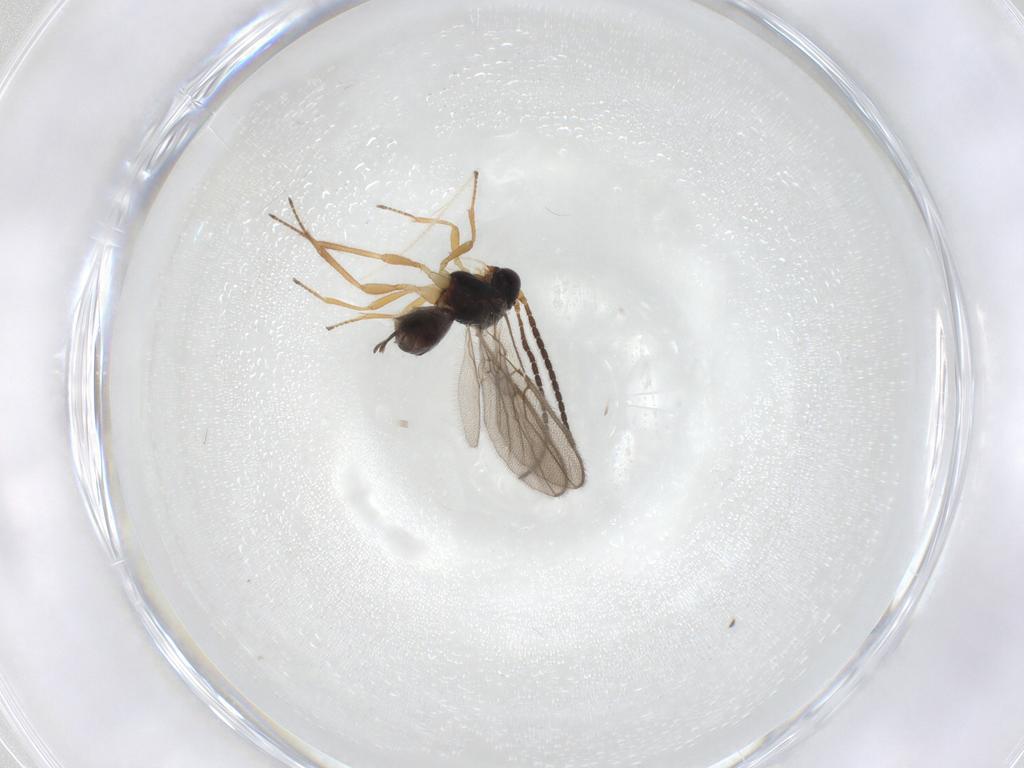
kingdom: Animalia
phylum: Arthropoda
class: Insecta
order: Hymenoptera
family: Braconidae
